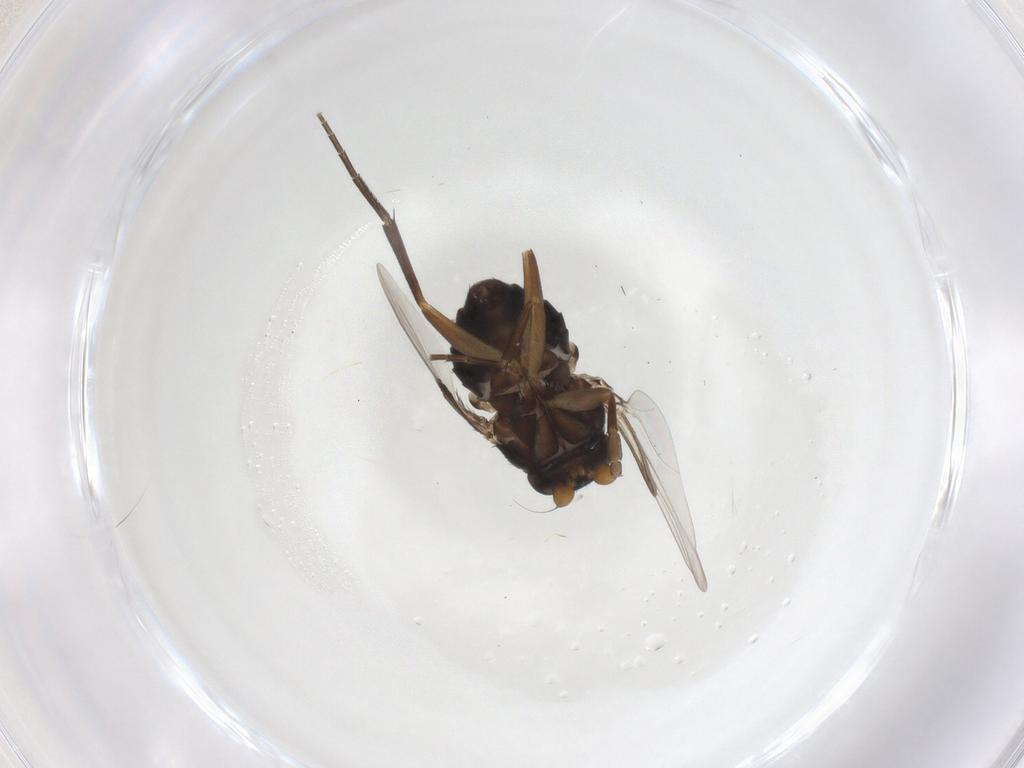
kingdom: Animalia
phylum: Arthropoda
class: Insecta
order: Diptera
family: Phoridae
